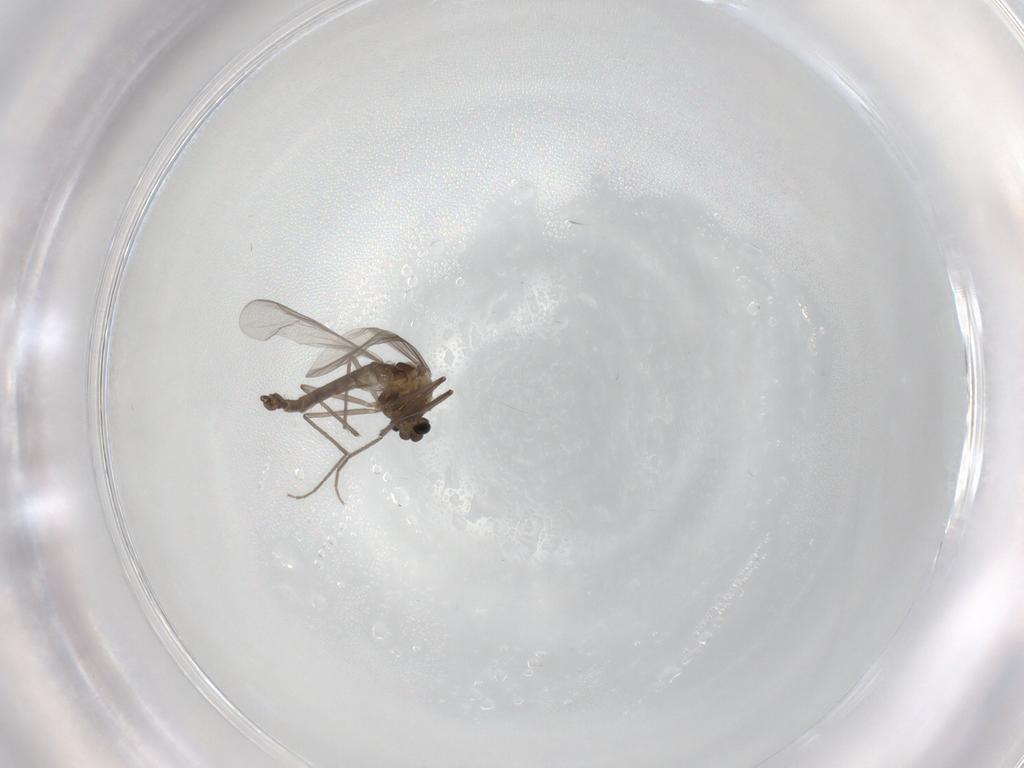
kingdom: Animalia
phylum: Arthropoda
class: Insecta
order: Diptera
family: Chironomidae
